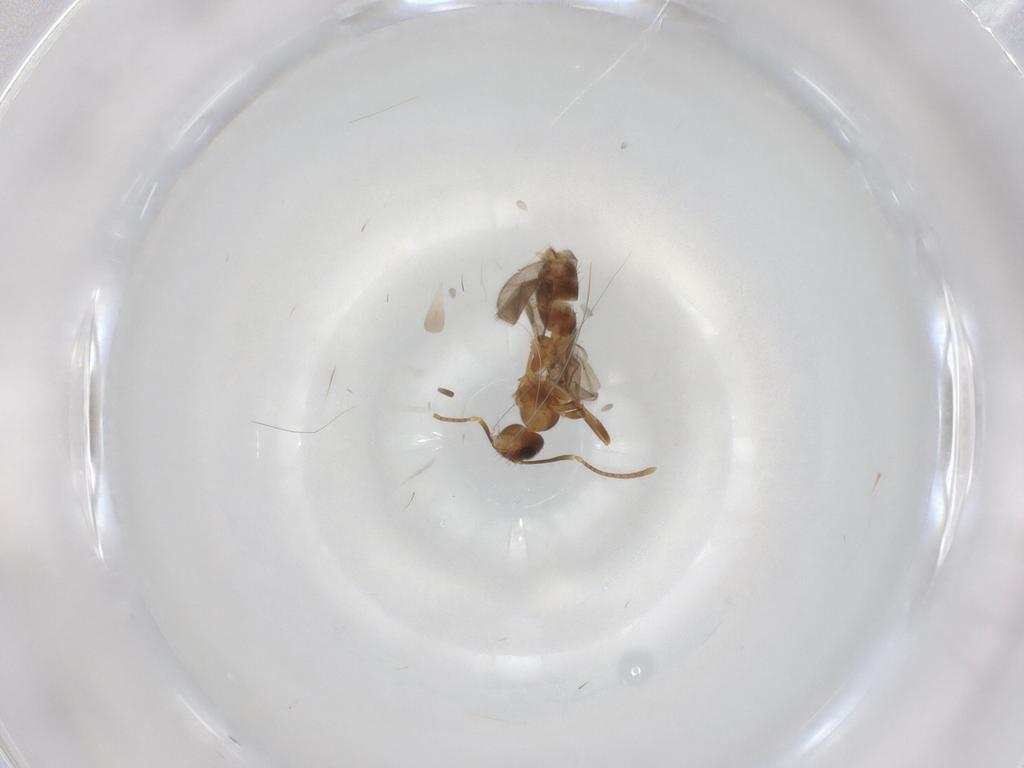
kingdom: Animalia
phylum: Arthropoda
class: Insecta
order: Hymenoptera
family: Formicidae
